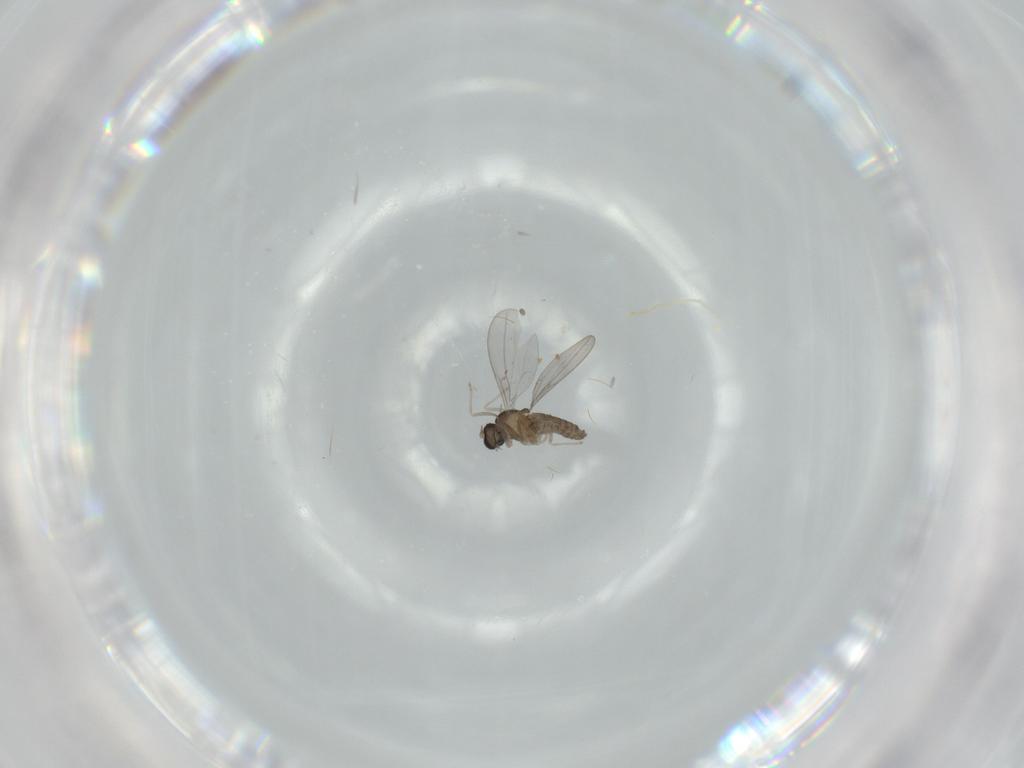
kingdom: Animalia
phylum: Arthropoda
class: Insecta
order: Diptera
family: Cecidomyiidae
